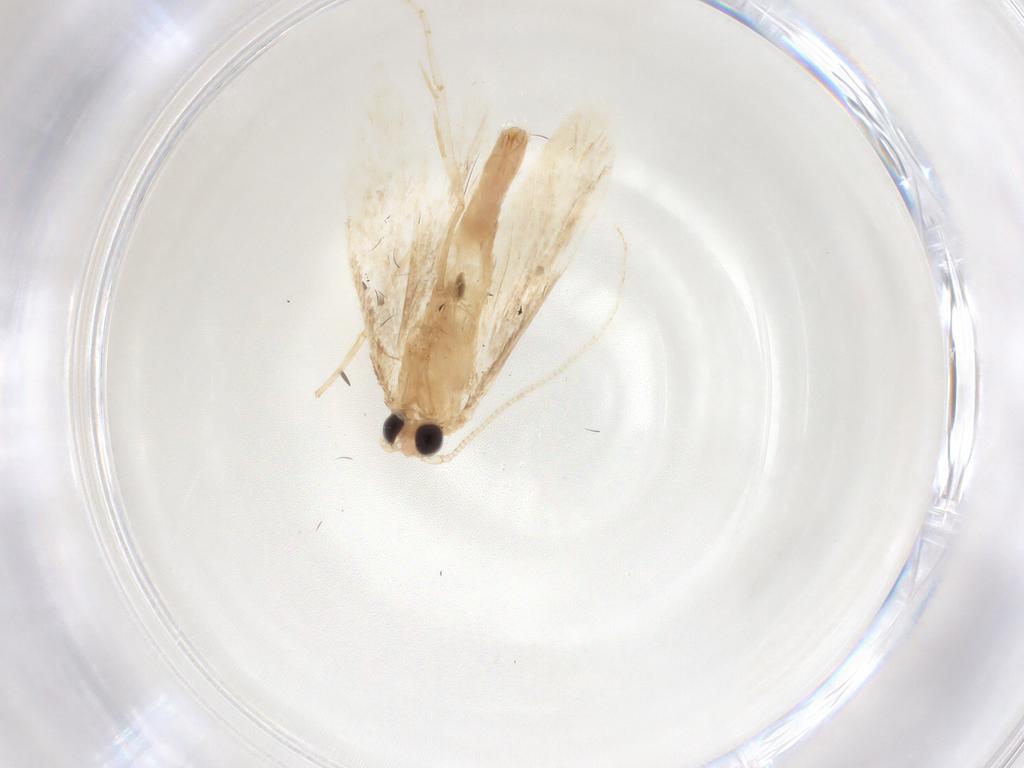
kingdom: Animalia
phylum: Arthropoda
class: Insecta
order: Lepidoptera
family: Tineidae
